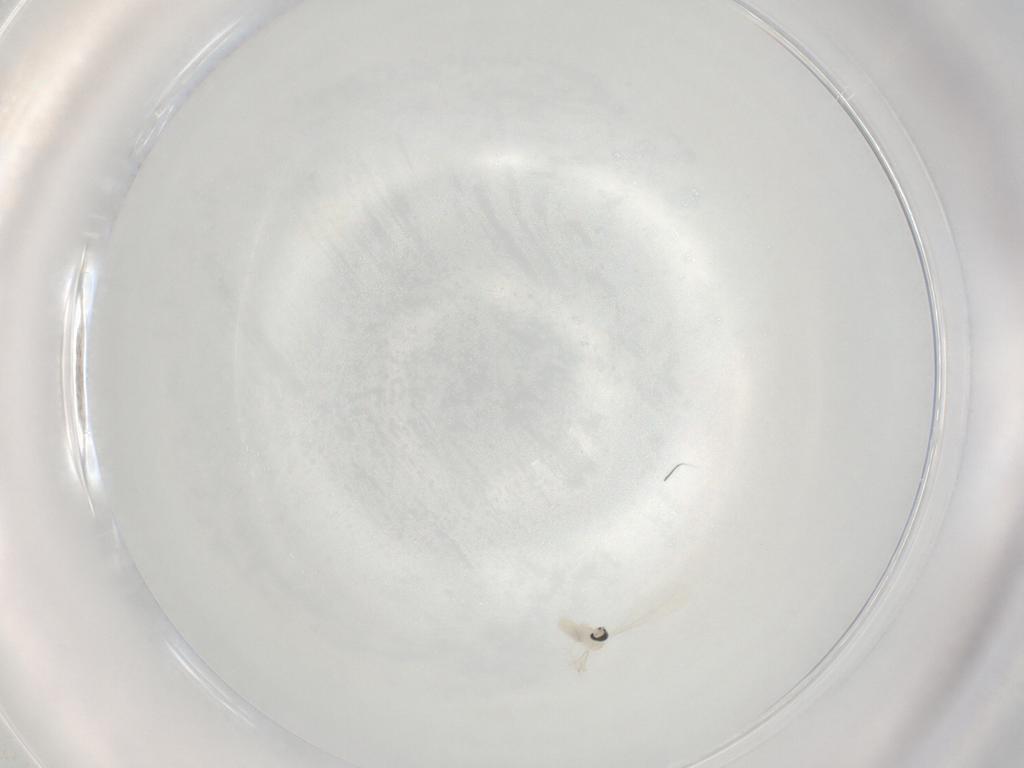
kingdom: Animalia
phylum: Arthropoda
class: Insecta
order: Diptera
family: Cecidomyiidae
